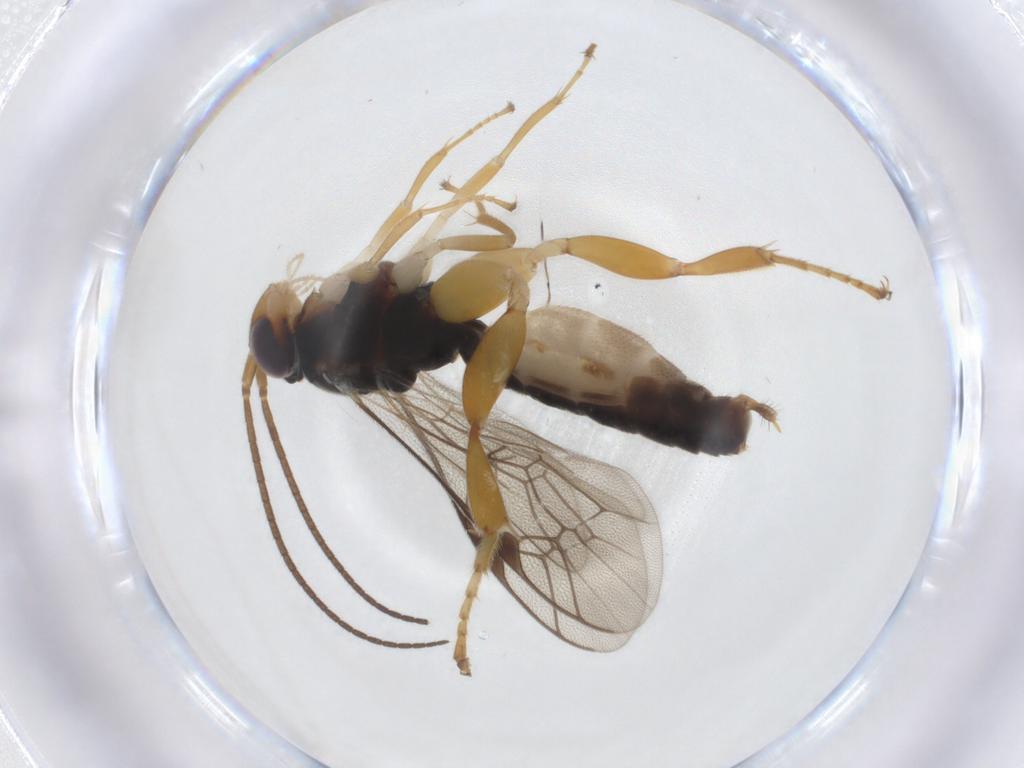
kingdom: Animalia
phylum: Arthropoda
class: Insecta
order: Hymenoptera
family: Ichneumonidae
